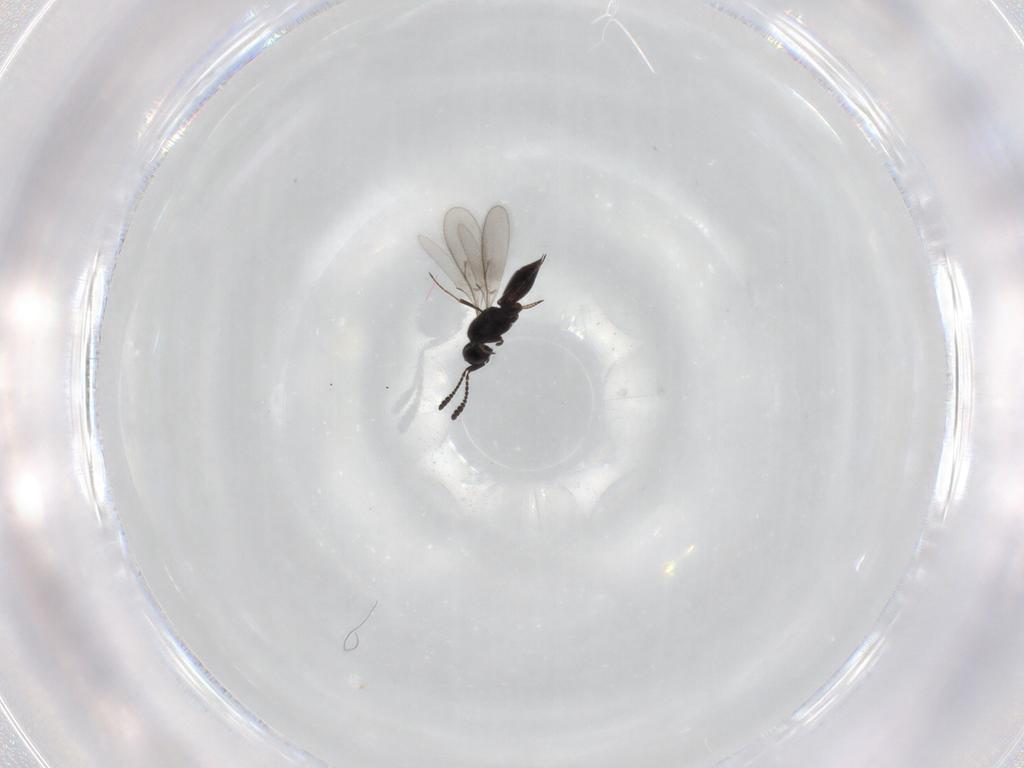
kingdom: Animalia
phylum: Arthropoda
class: Insecta
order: Hymenoptera
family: Scelionidae
